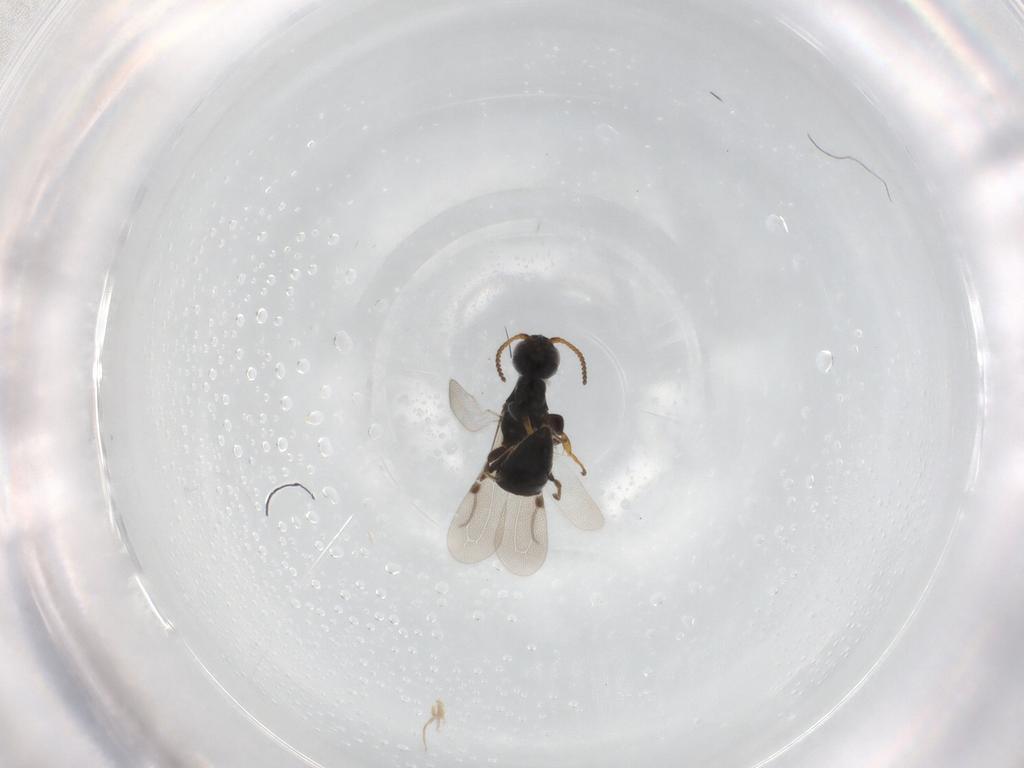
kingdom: Animalia
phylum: Arthropoda
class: Insecta
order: Hymenoptera
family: Bethylidae
